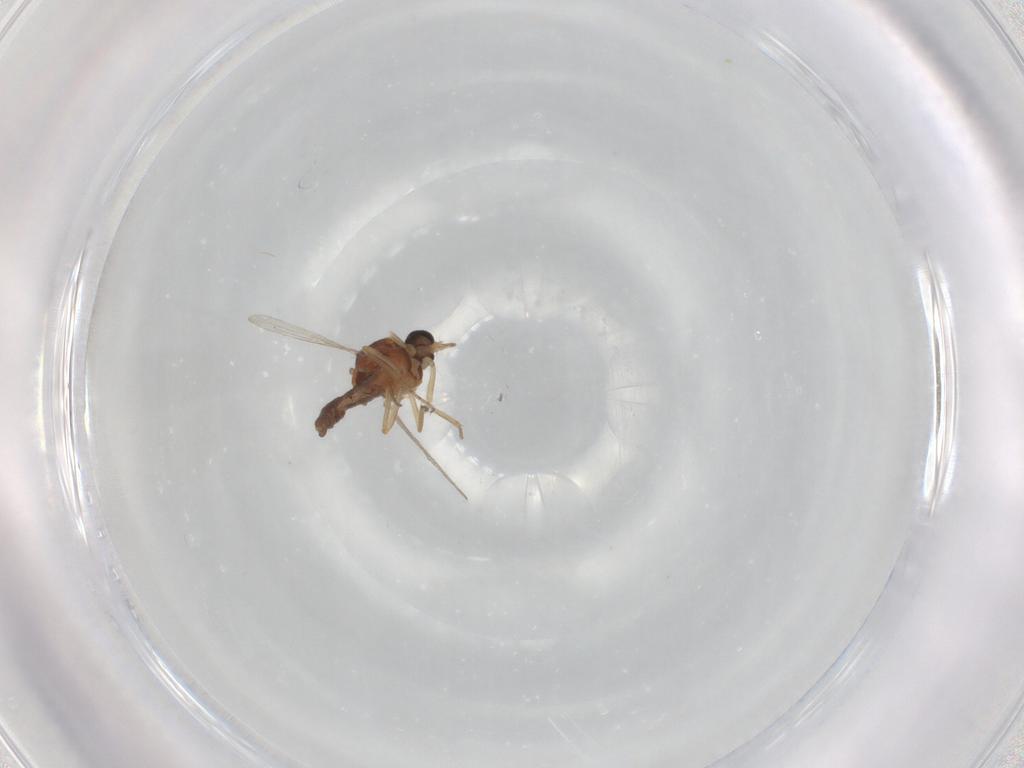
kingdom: Animalia
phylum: Arthropoda
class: Insecta
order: Diptera
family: Ceratopogonidae
